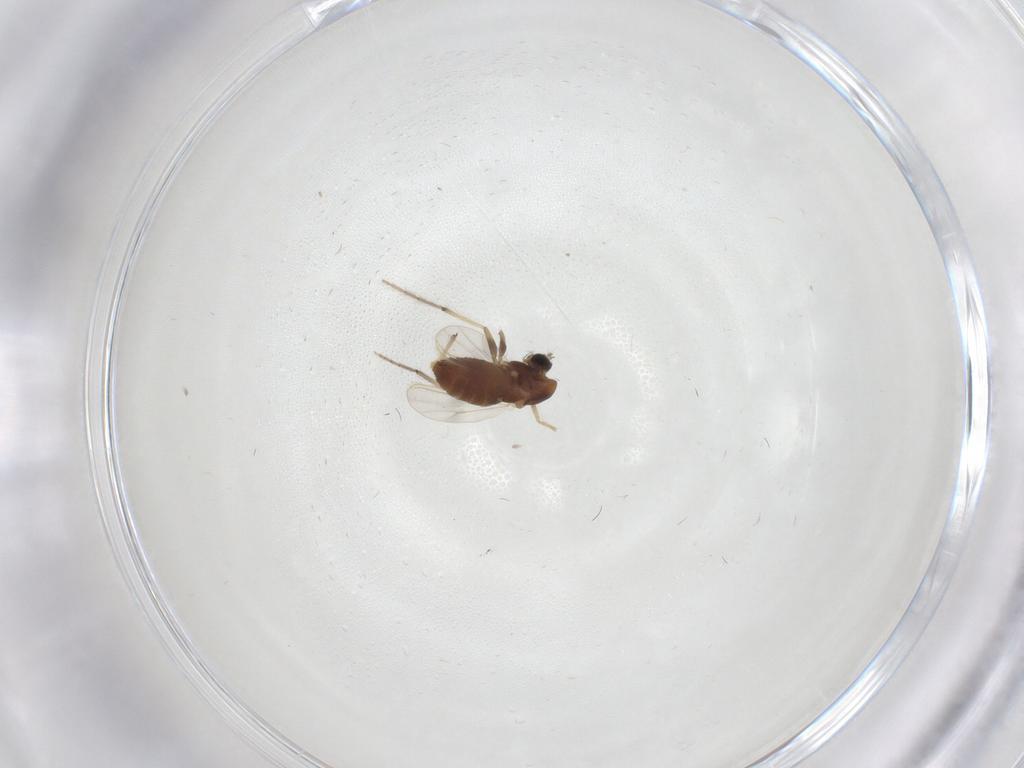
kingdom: Animalia
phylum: Arthropoda
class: Insecta
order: Diptera
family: Chironomidae
